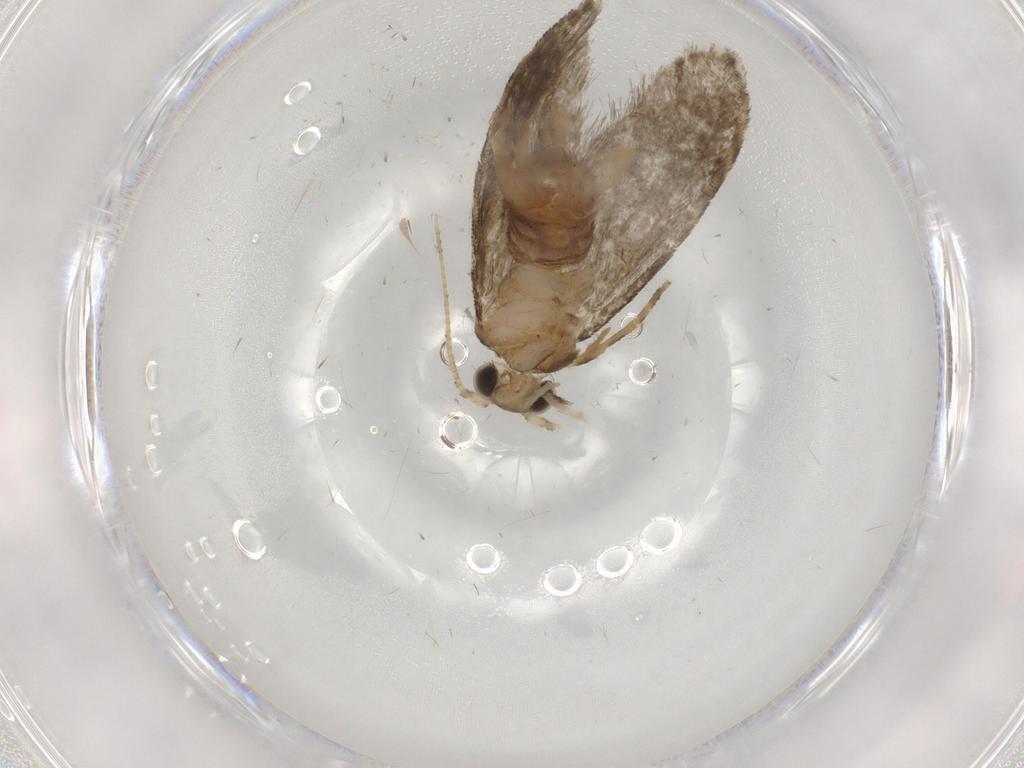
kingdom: Animalia
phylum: Arthropoda
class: Insecta
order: Lepidoptera
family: Tineidae
